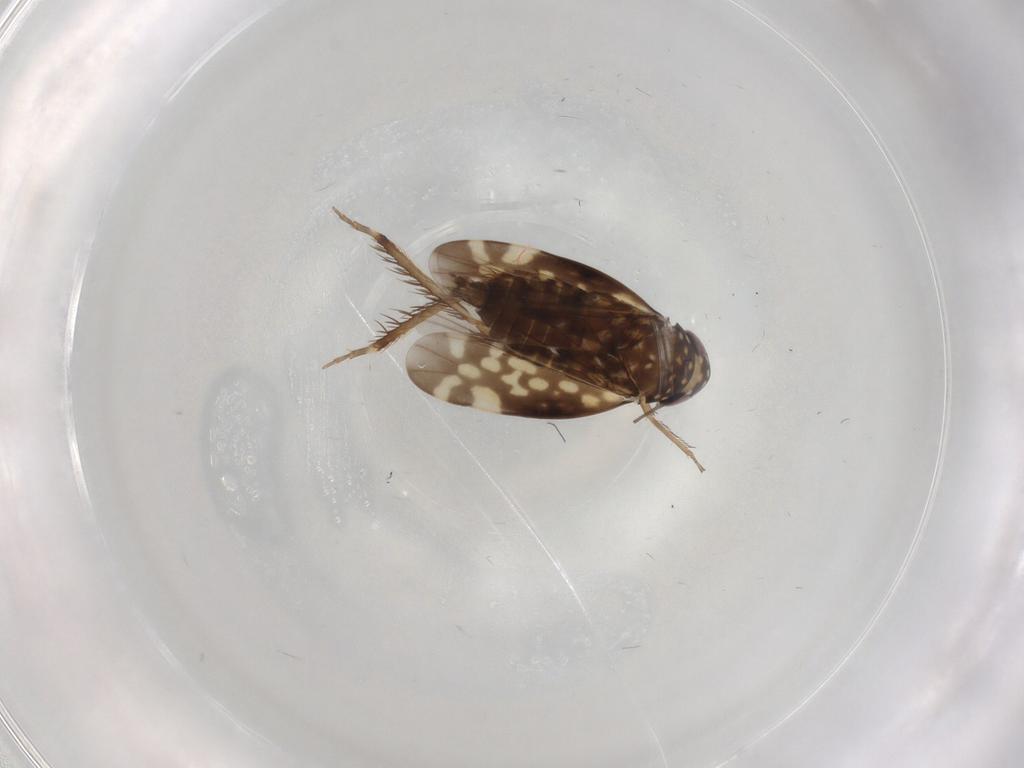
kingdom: Animalia
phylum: Arthropoda
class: Insecta
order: Hemiptera
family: Cicadellidae
